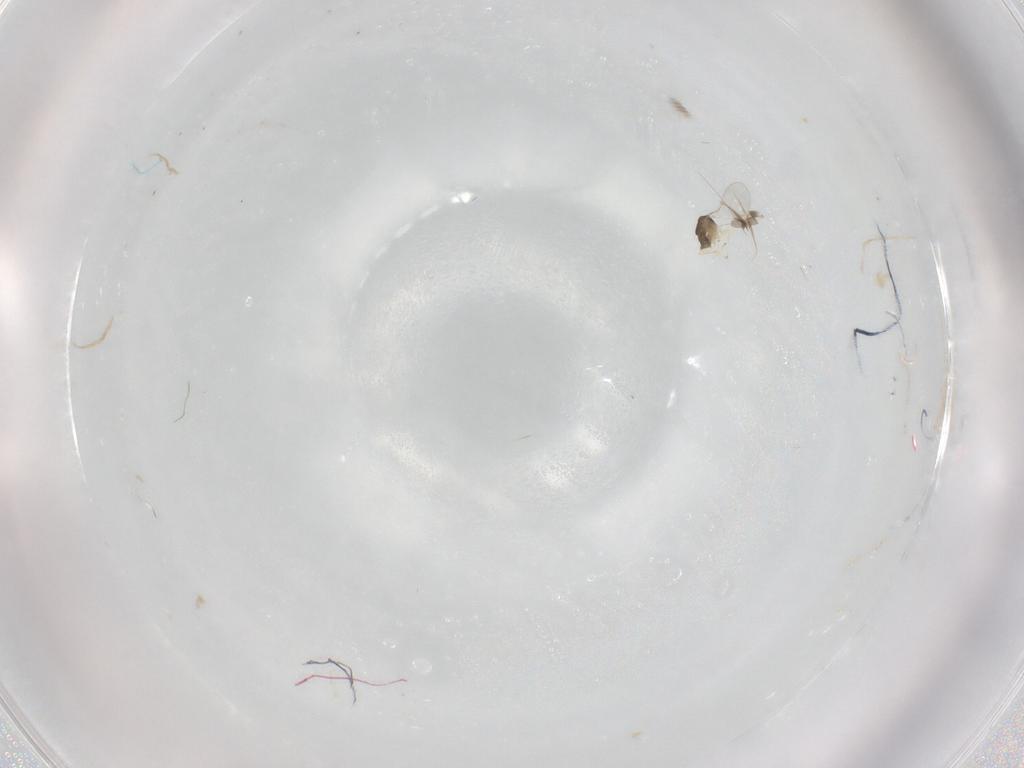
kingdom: Animalia
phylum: Arthropoda
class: Insecta
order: Hymenoptera
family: Encyrtidae
